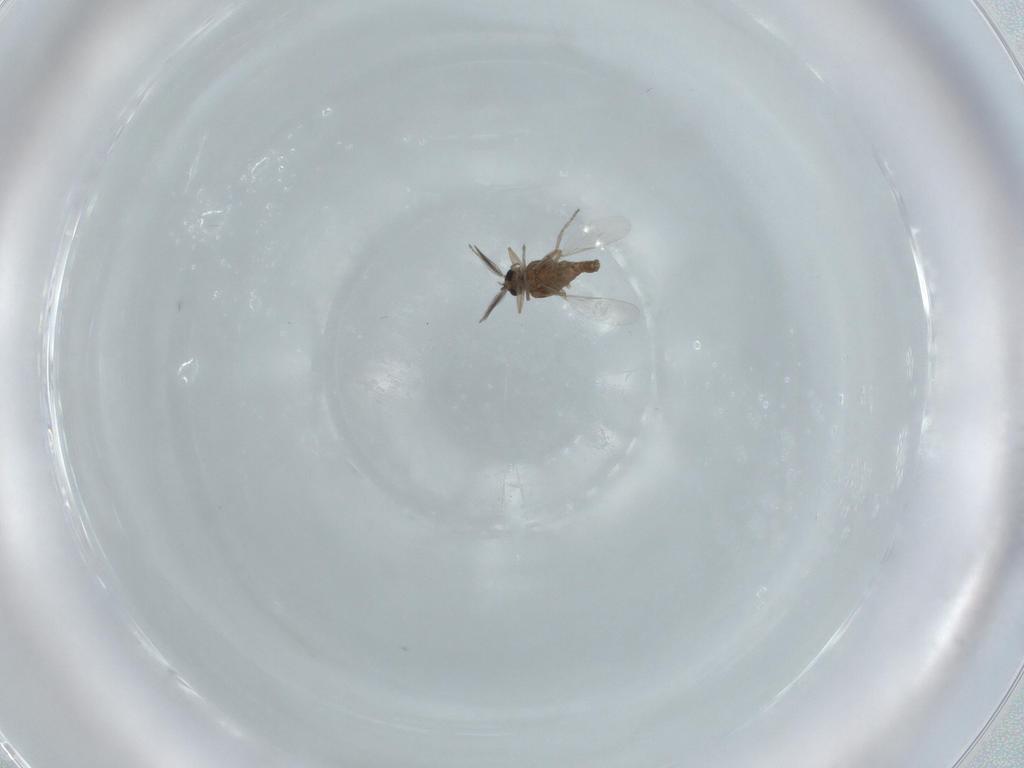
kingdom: Animalia
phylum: Arthropoda
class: Insecta
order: Diptera
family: Ceratopogonidae
